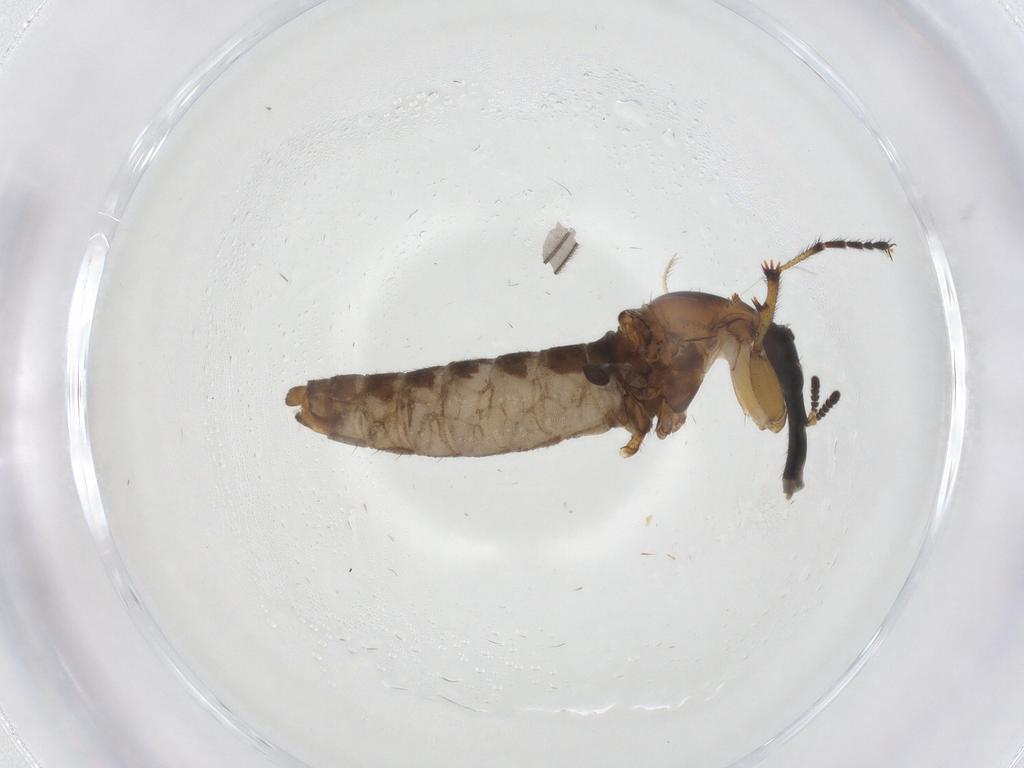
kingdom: Animalia
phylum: Arthropoda
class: Insecta
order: Diptera
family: Bibionidae
